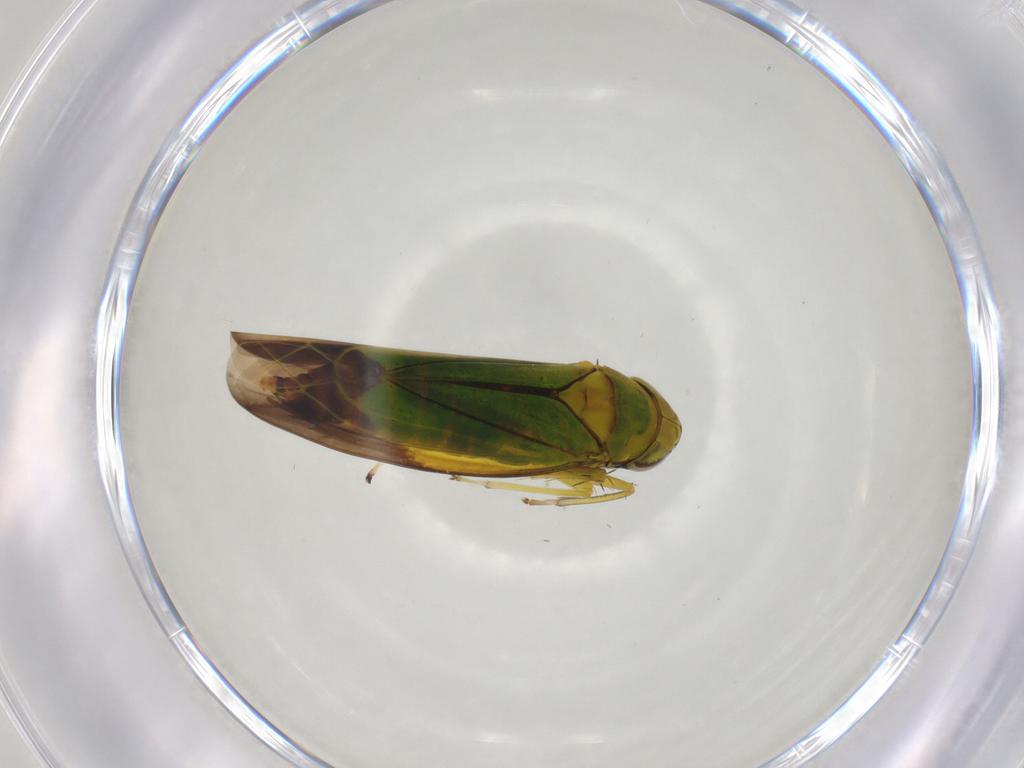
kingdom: Animalia
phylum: Arthropoda
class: Insecta
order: Hemiptera
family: Cicadellidae
